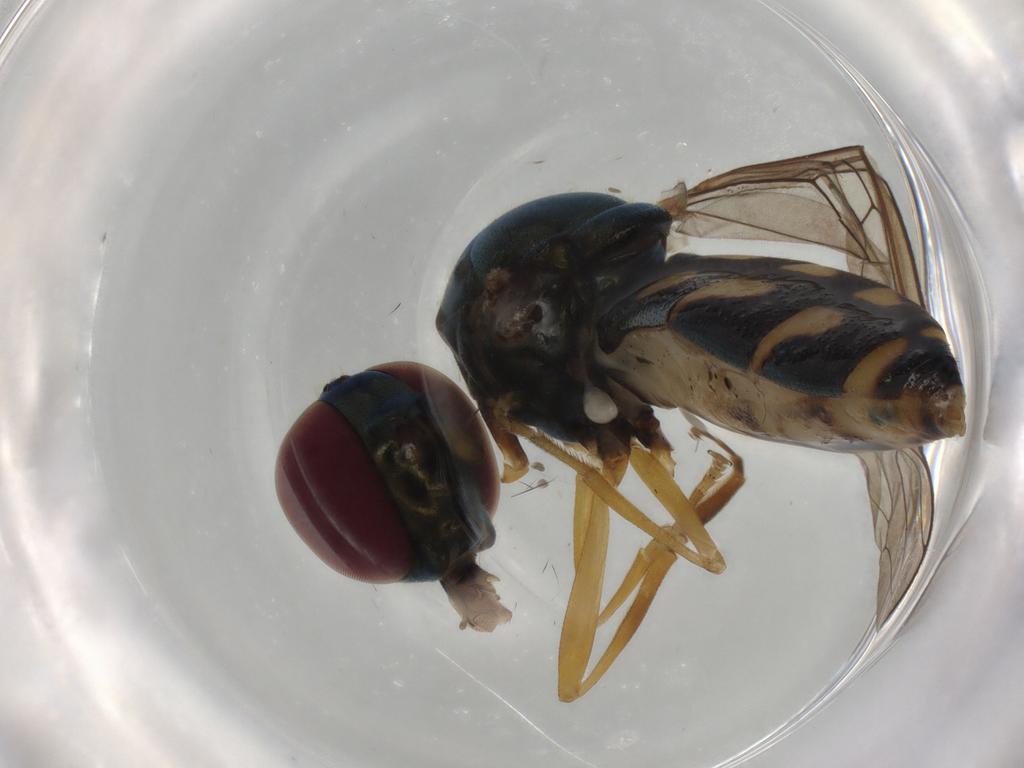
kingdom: Animalia
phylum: Arthropoda
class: Insecta
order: Diptera
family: Syrphidae
